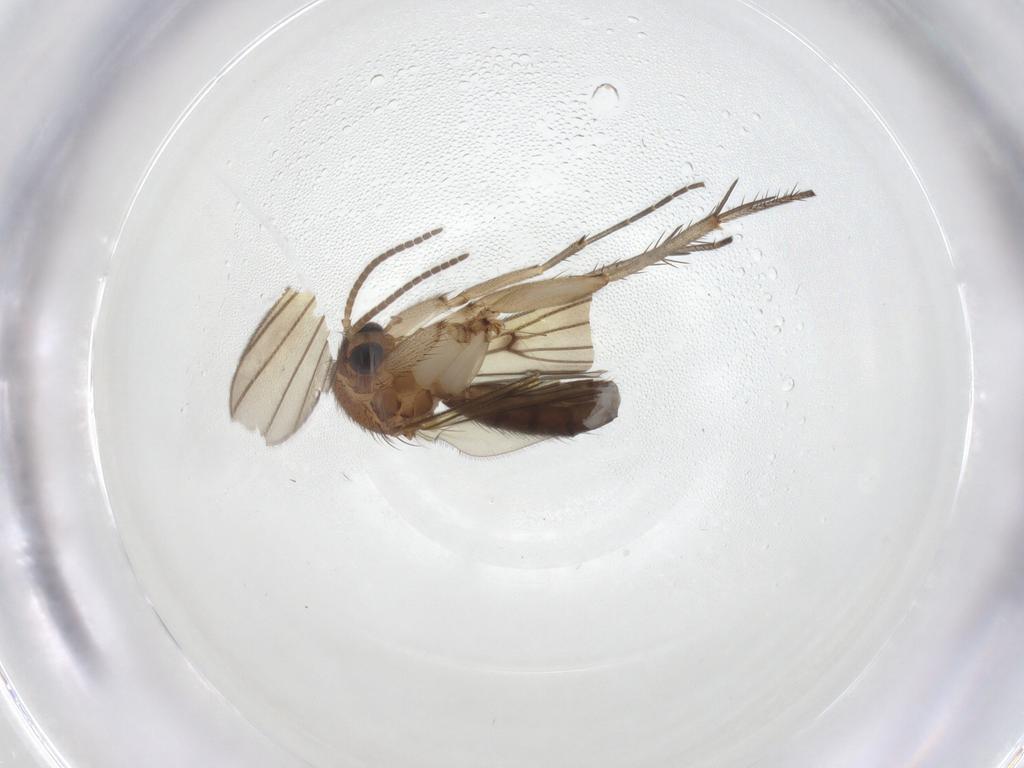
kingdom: Animalia
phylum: Arthropoda
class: Insecta
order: Diptera
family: Mycetophilidae
